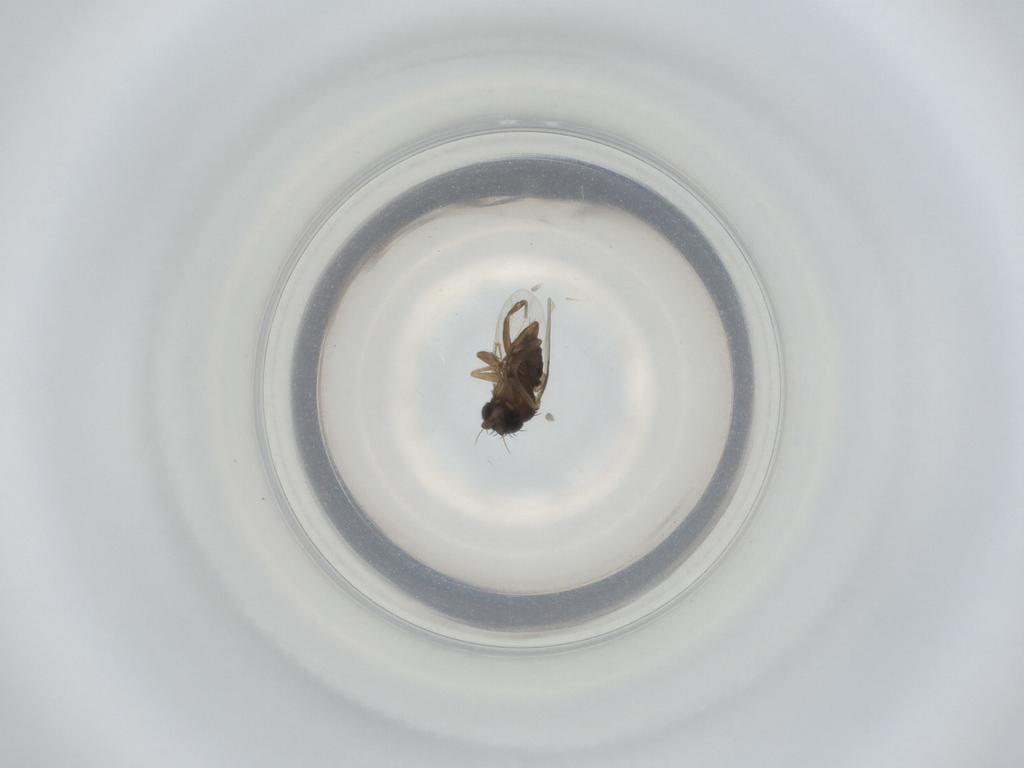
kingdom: Animalia
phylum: Arthropoda
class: Insecta
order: Diptera
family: Phoridae
